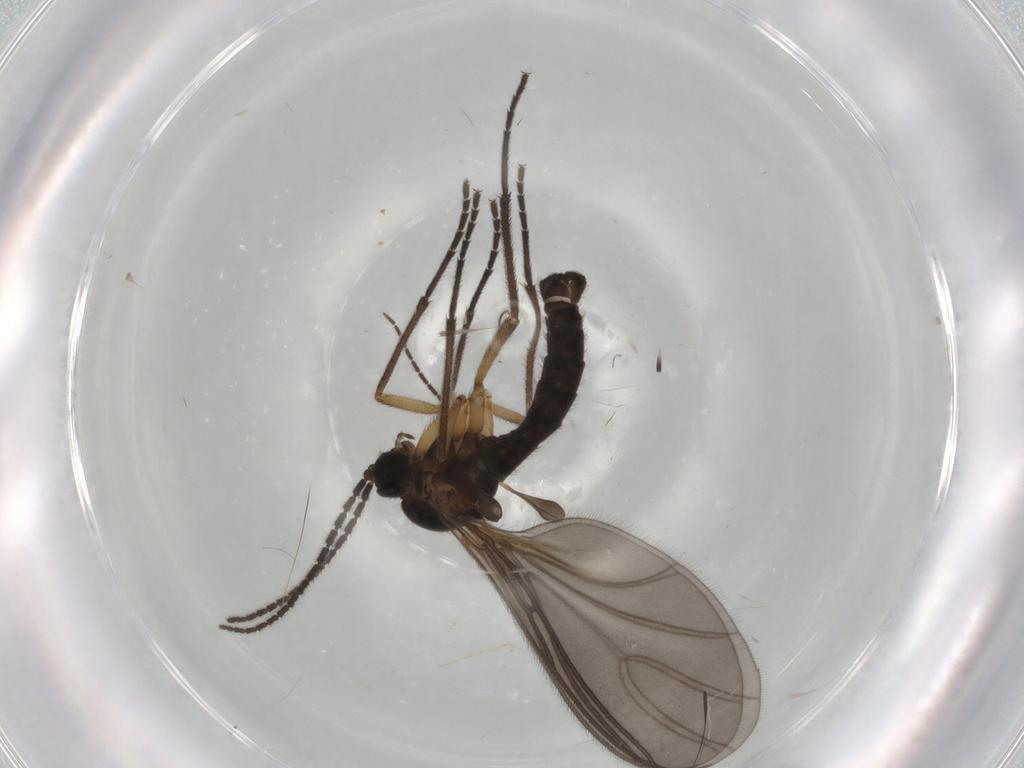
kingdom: Animalia
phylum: Arthropoda
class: Insecta
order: Diptera
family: Sciaridae
